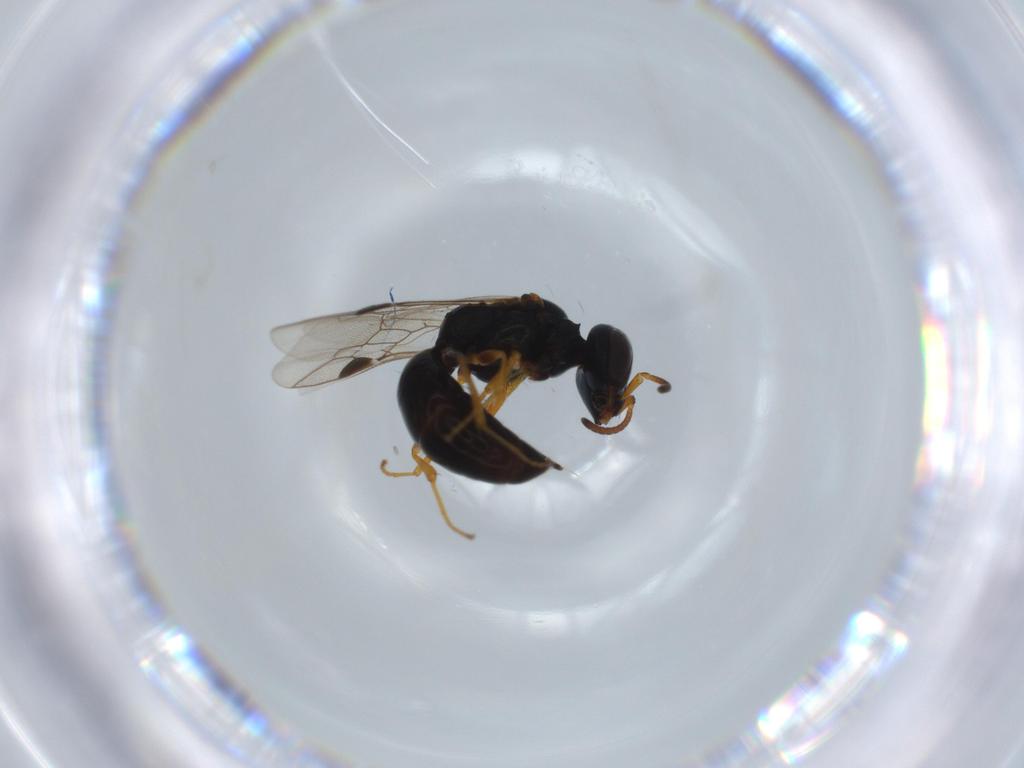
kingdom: Animalia
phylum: Arthropoda
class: Insecta
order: Hymenoptera
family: Pemphredonidae
